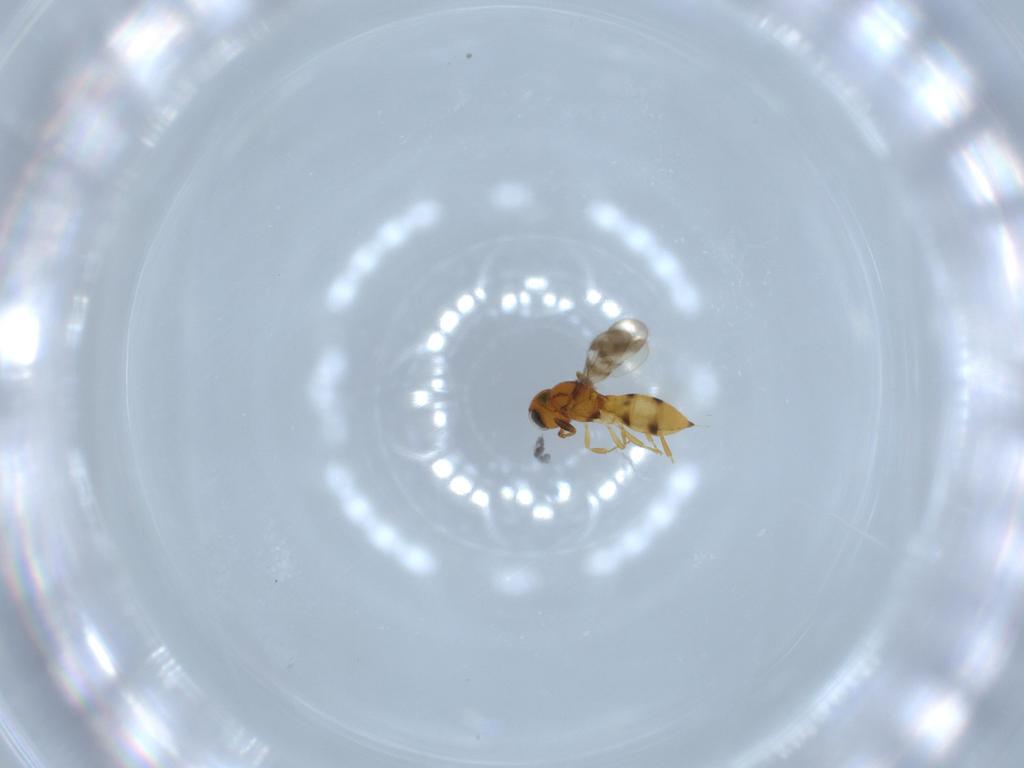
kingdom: Animalia
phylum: Arthropoda
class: Insecta
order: Hymenoptera
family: Scelionidae
